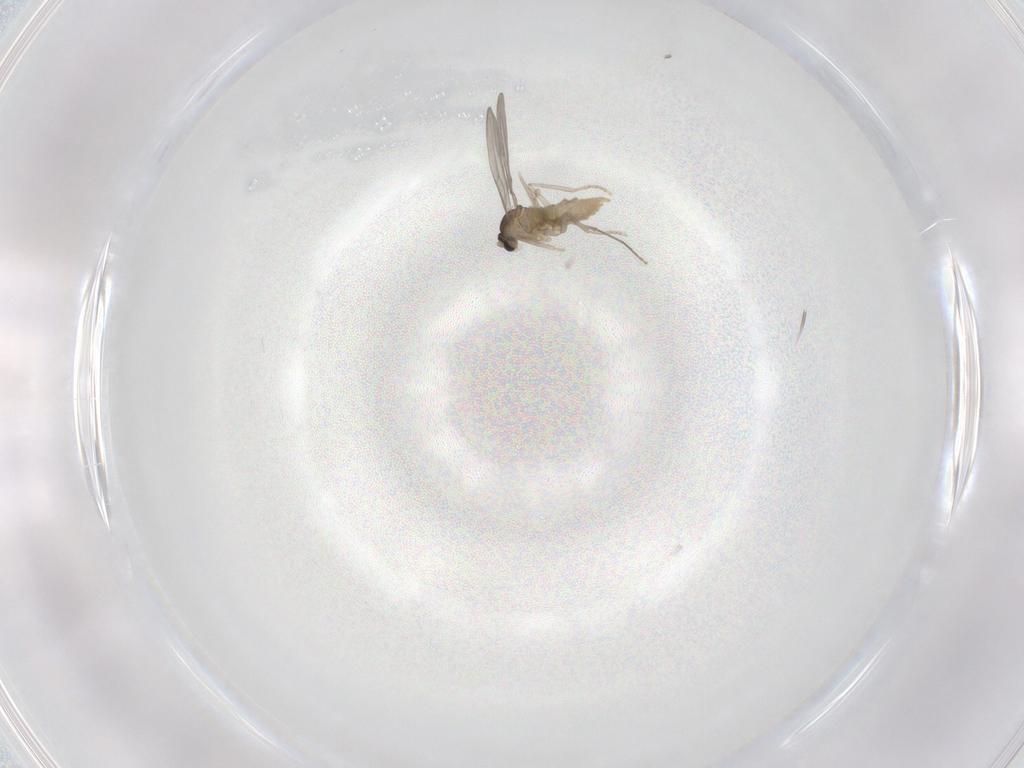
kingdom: Animalia
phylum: Arthropoda
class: Insecta
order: Diptera
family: Cecidomyiidae
